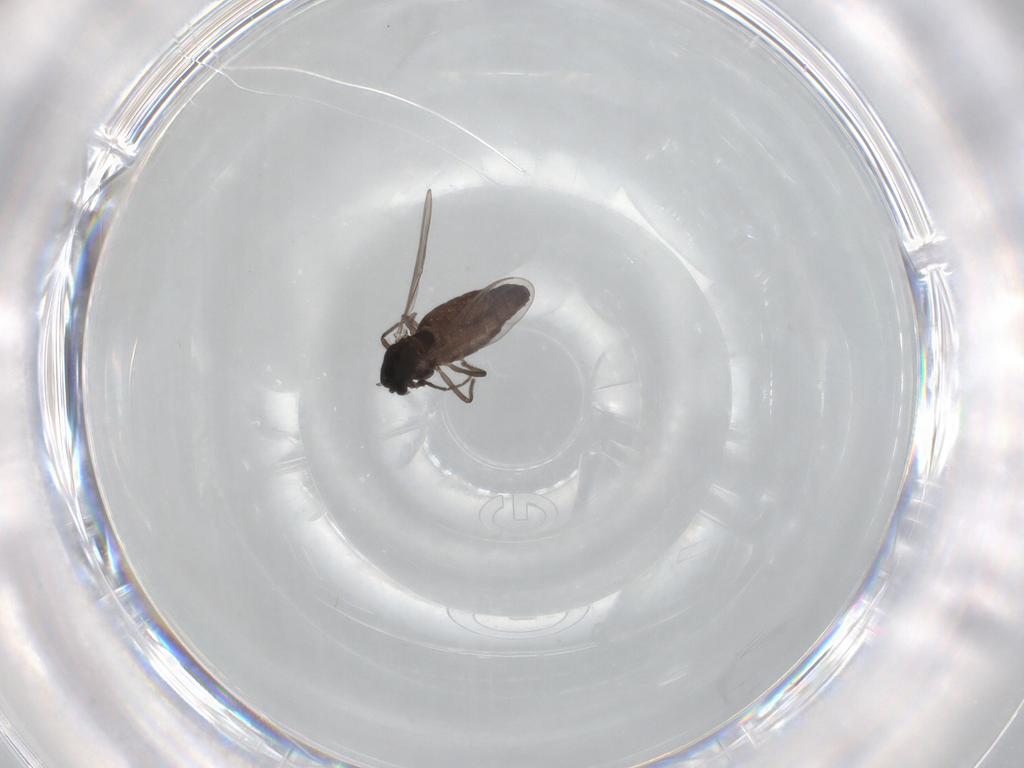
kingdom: Animalia
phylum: Arthropoda
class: Insecta
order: Diptera
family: Chironomidae
